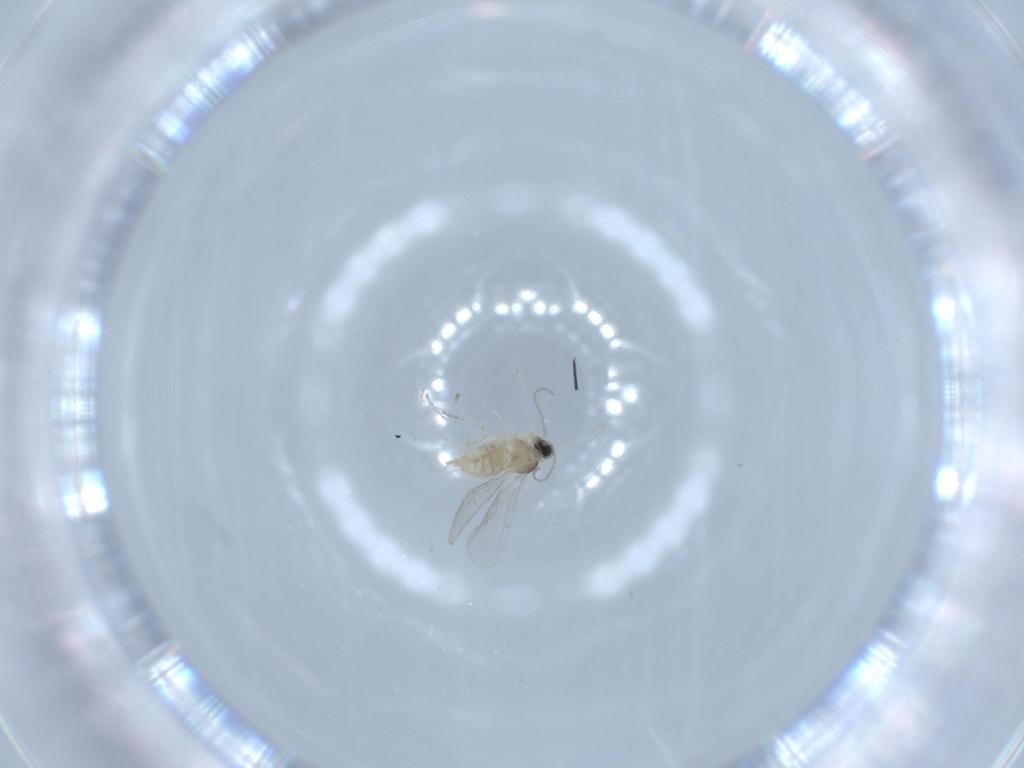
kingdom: Animalia
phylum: Arthropoda
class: Insecta
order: Diptera
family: Cecidomyiidae
